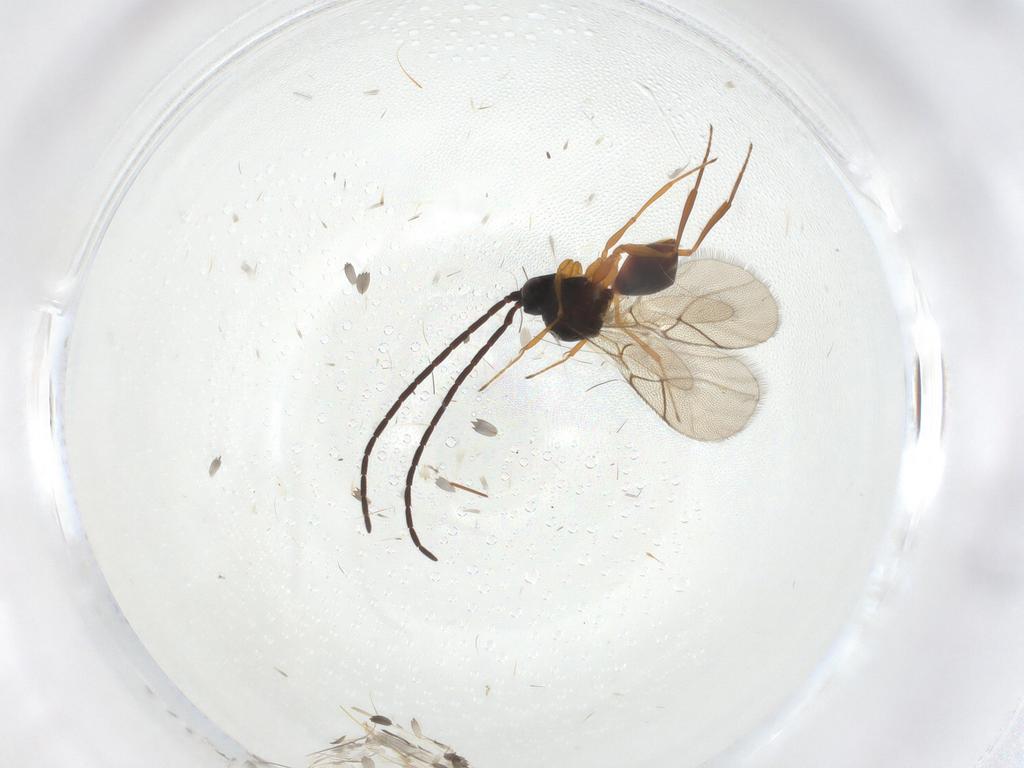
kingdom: Animalia
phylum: Arthropoda
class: Insecta
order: Hymenoptera
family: Figitidae
